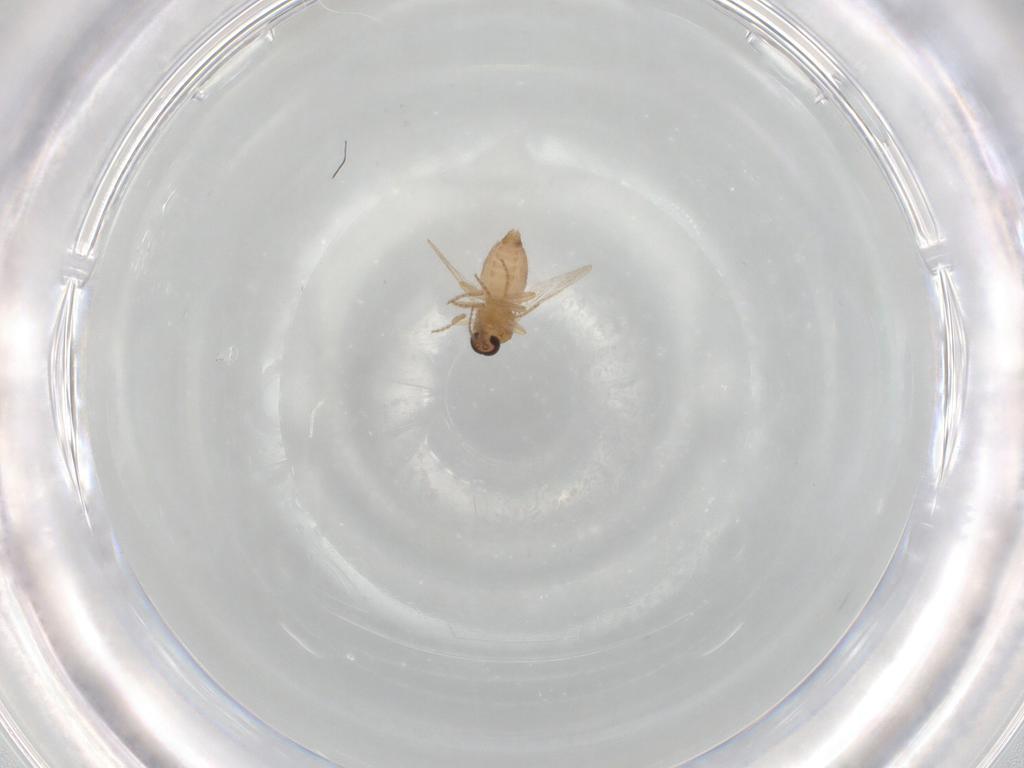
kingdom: Animalia
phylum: Arthropoda
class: Insecta
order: Diptera
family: Ceratopogonidae
